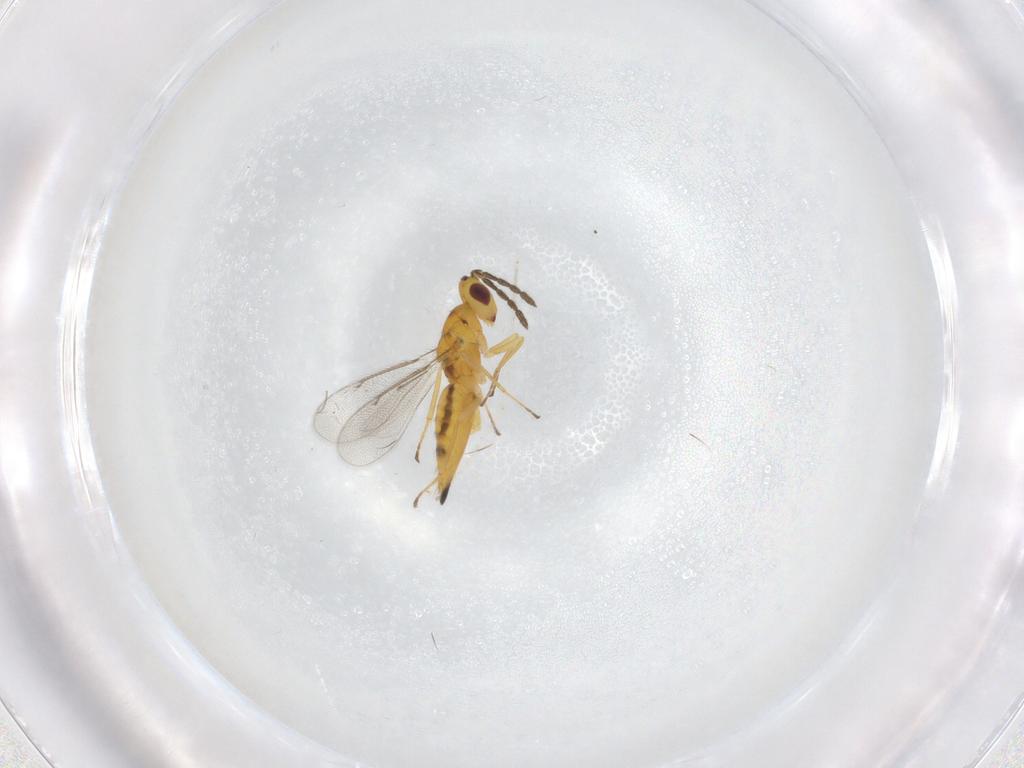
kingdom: Animalia
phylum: Arthropoda
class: Insecta
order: Hymenoptera
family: Eulophidae
